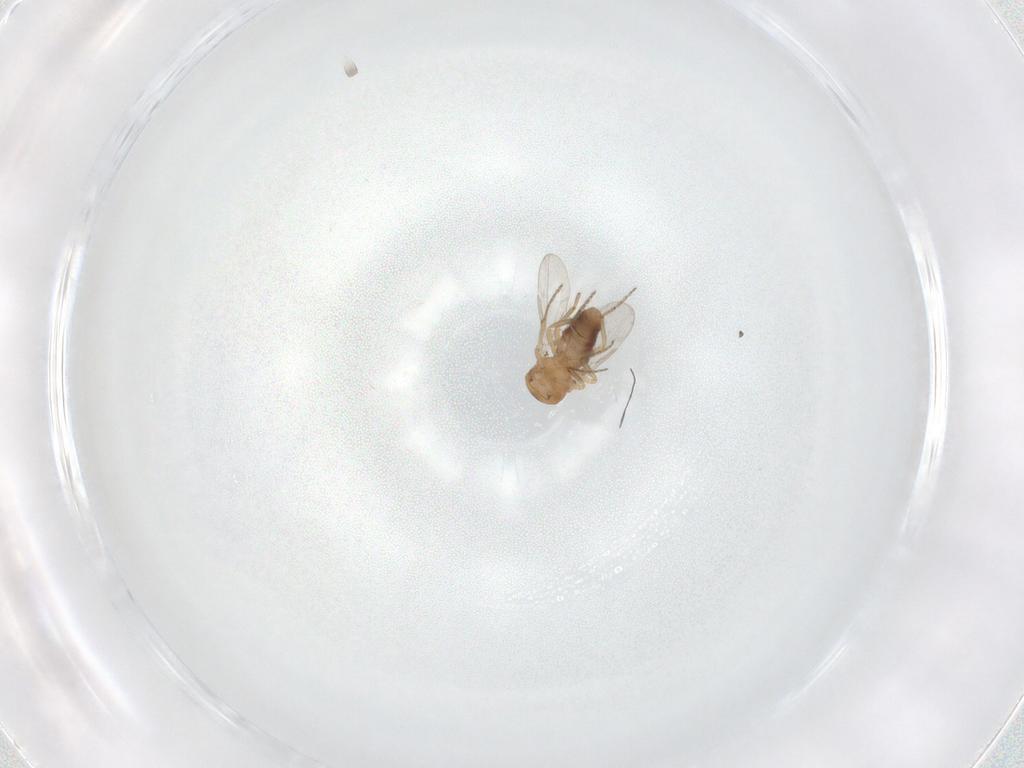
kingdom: Animalia
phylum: Arthropoda
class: Insecta
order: Diptera
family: Ceratopogonidae
